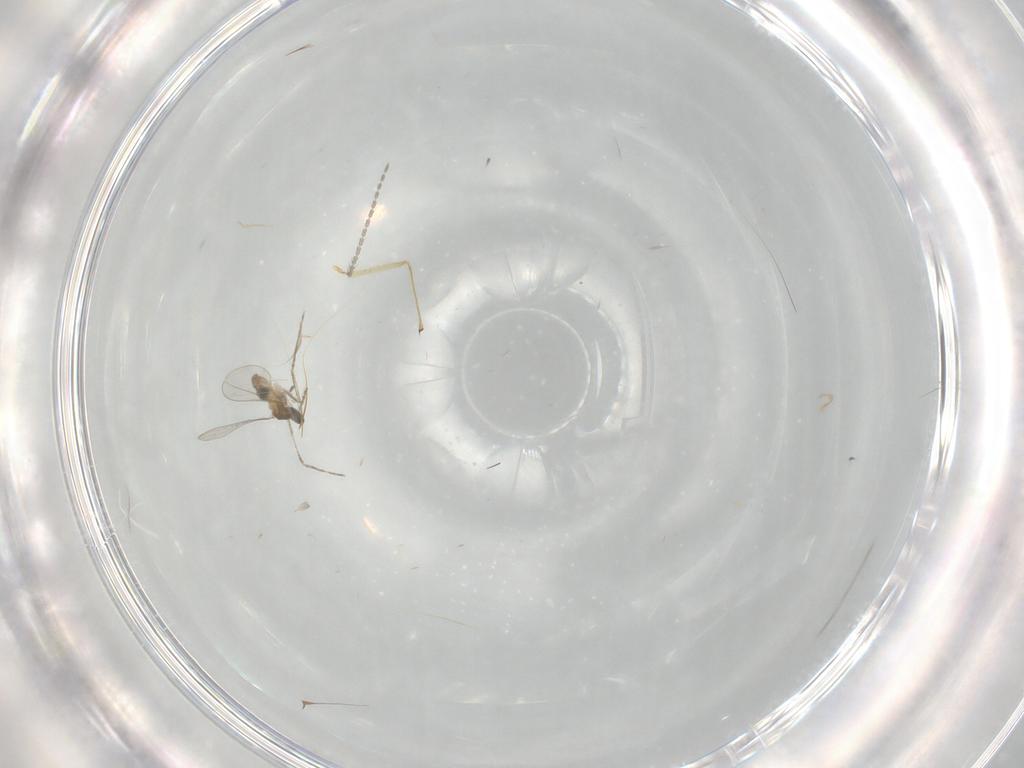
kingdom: Animalia
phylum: Arthropoda
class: Insecta
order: Diptera
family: Cecidomyiidae
